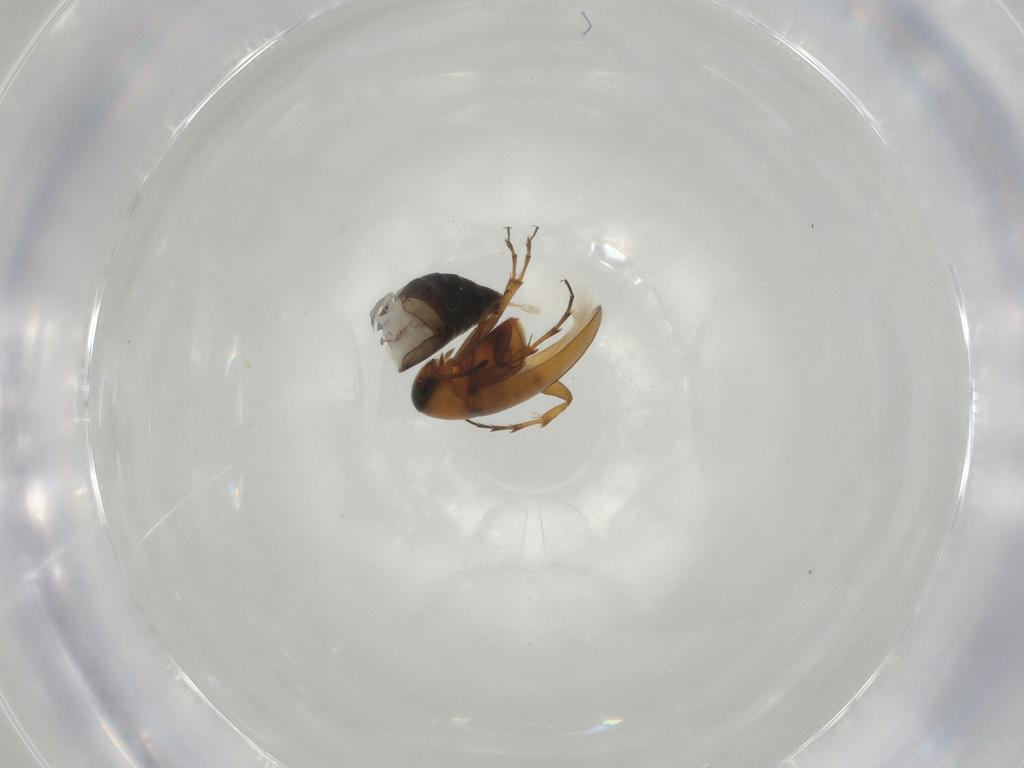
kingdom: Animalia
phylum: Arthropoda
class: Insecta
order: Coleoptera
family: Scraptiidae
